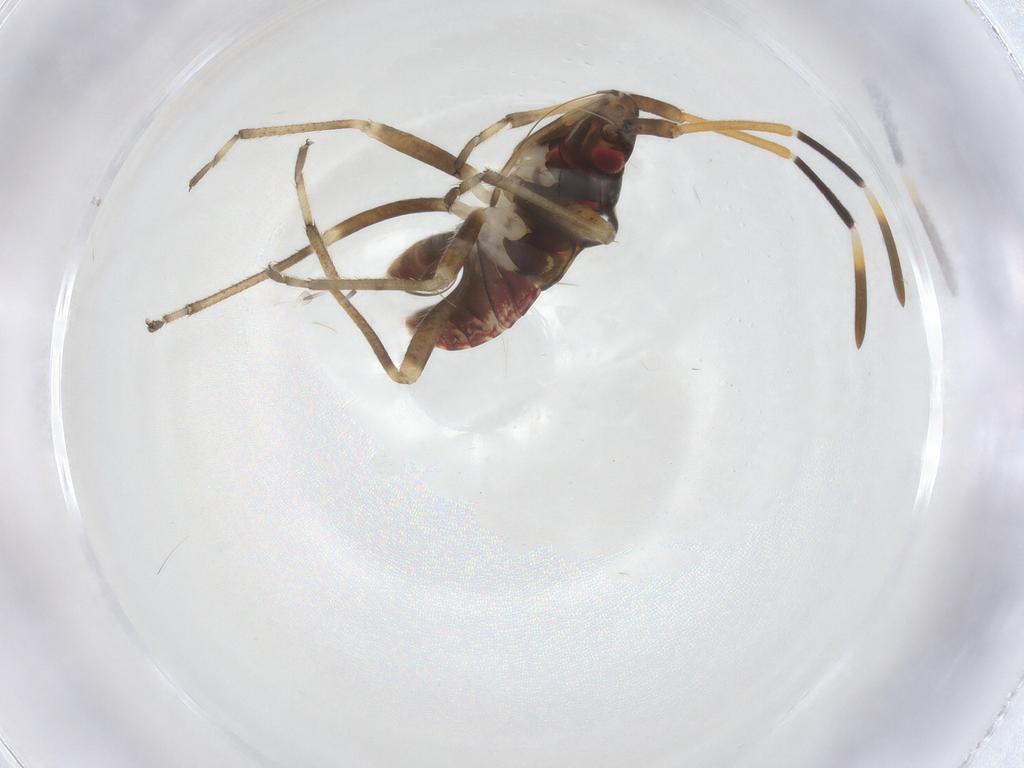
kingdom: Animalia
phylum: Arthropoda
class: Insecta
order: Hemiptera
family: Rhyparochromidae
